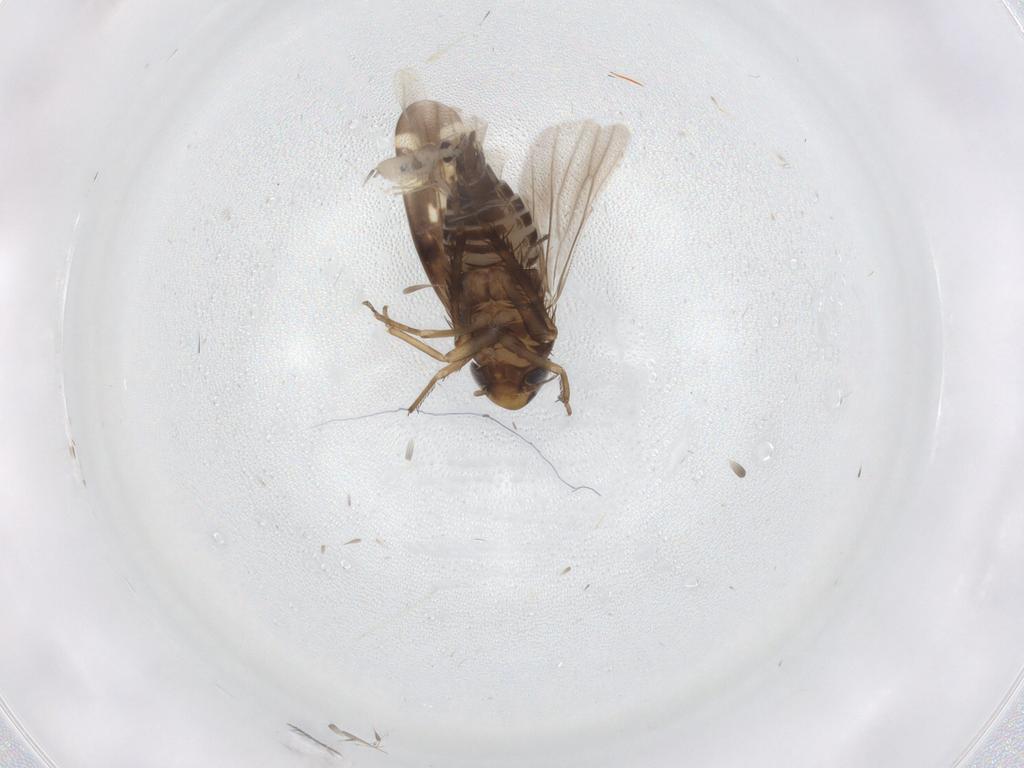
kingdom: Animalia
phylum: Arthropoda
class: Insecta
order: Hemiptera
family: Cicadellidae
